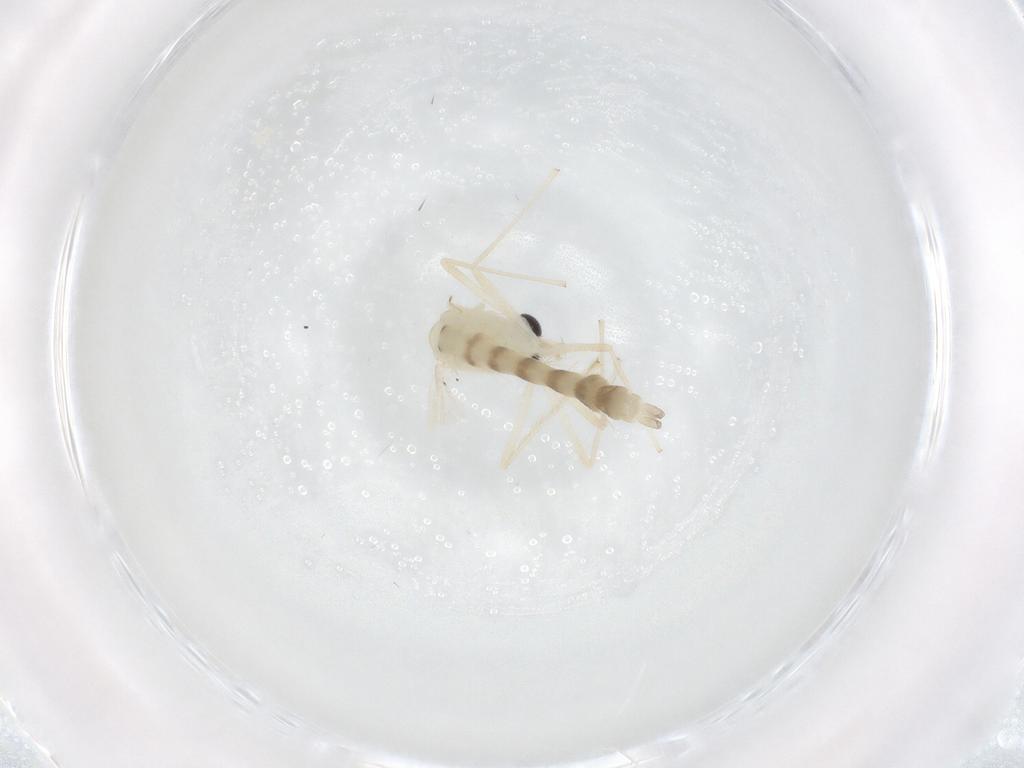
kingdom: Animalia
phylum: Arthropoda
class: Insecta
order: Diptera
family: Chironomidae
